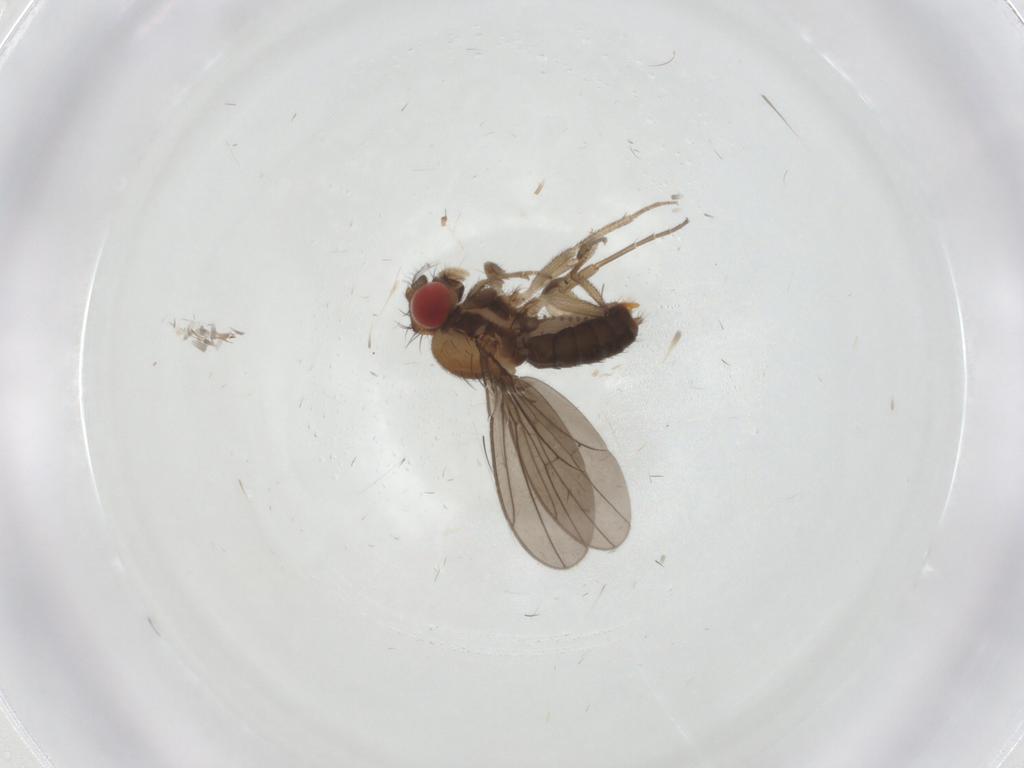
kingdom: Animalia
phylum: Arthropoda
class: Insecta
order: Diptera
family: Psychodidae
